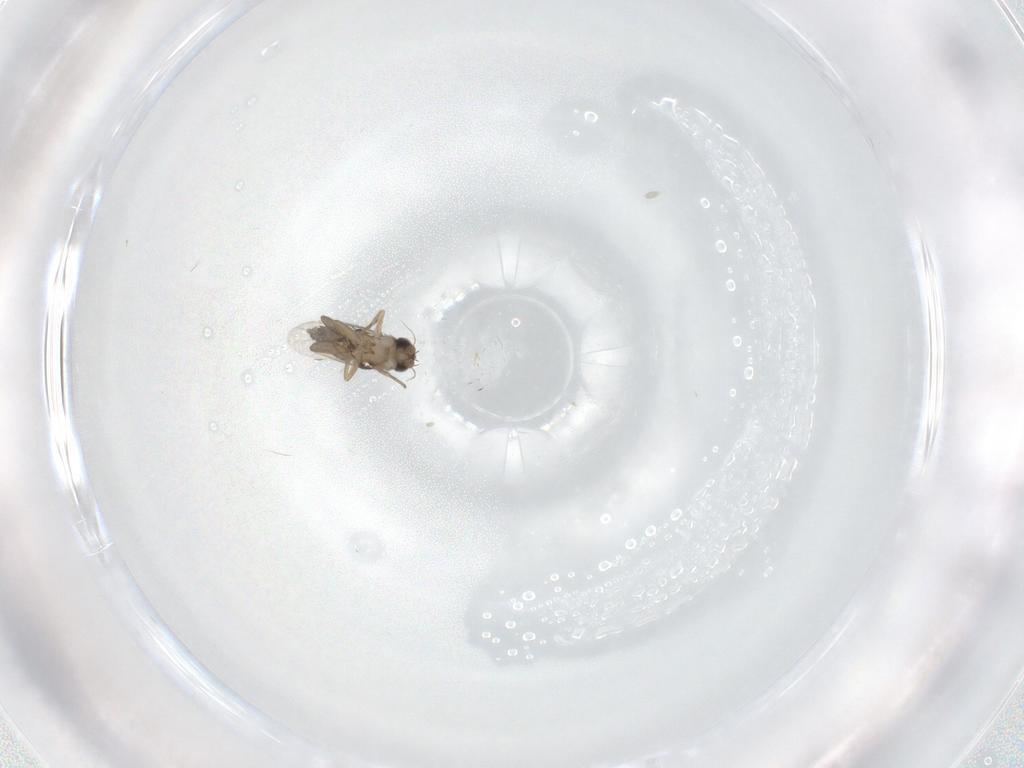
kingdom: Animalia
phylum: Arthropoda
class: Insecta
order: Diptera
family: Phoridae
